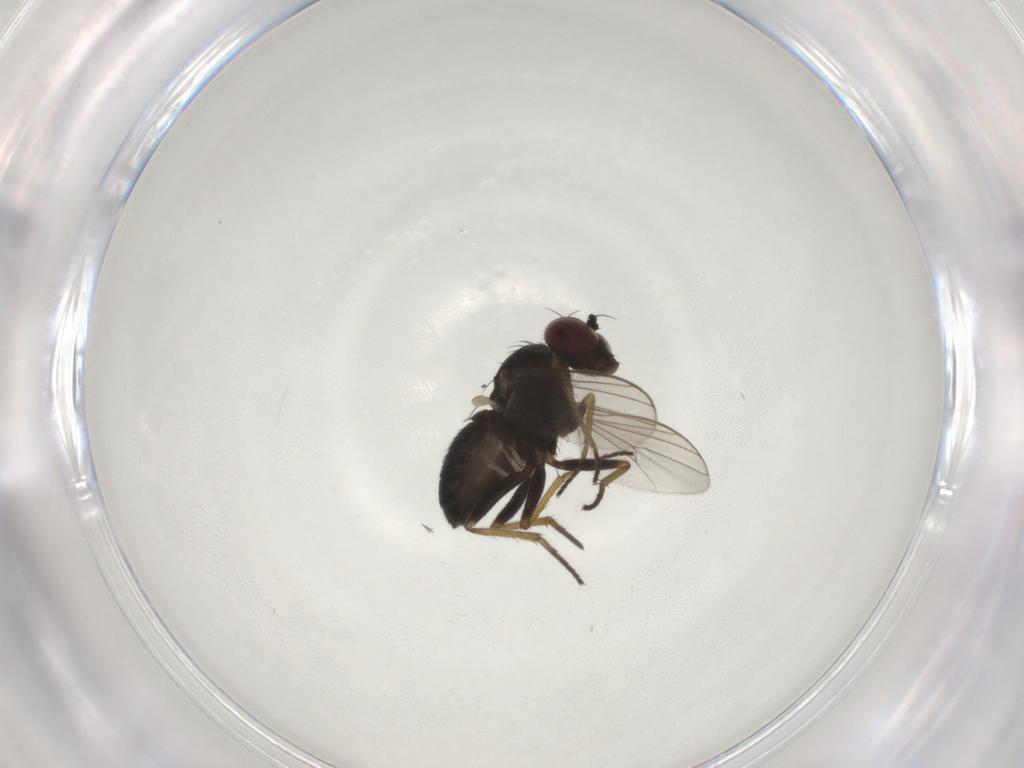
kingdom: Animalia
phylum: Arthropoda
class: Insecta
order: Diptera
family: Dolichopodidae
